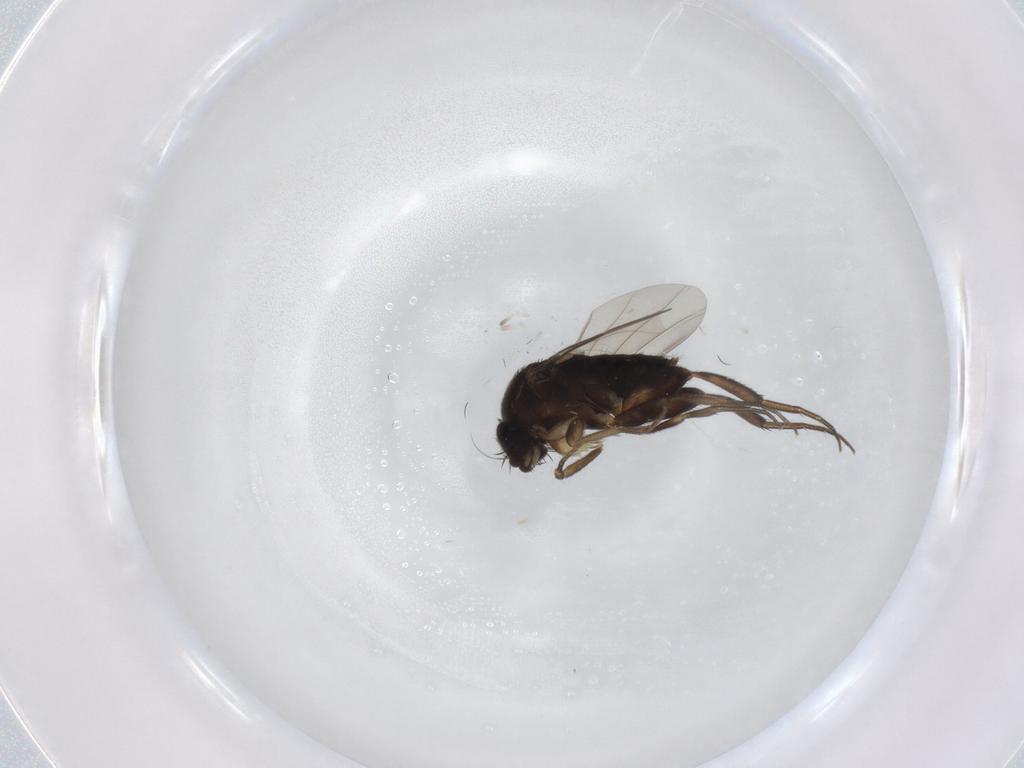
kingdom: Animalia
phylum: Arthropoda
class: Insecta
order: Diptera
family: Phoridae
